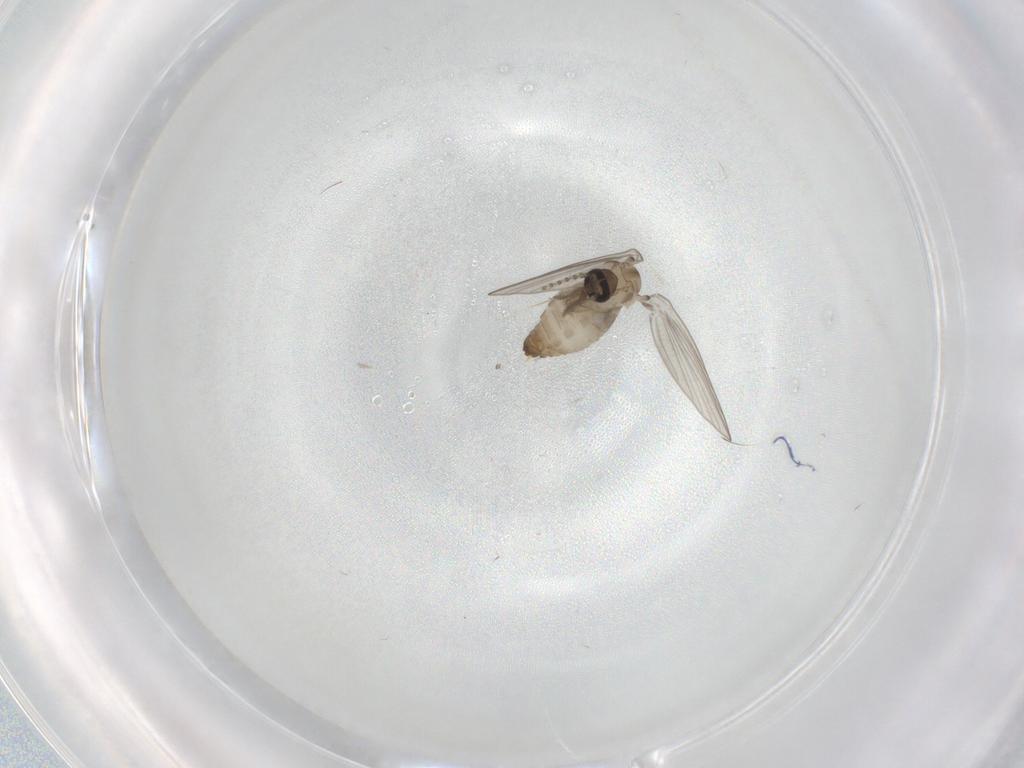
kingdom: Animalia
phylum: Arthropoda
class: Insecta
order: Diptera
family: Psychodidae
